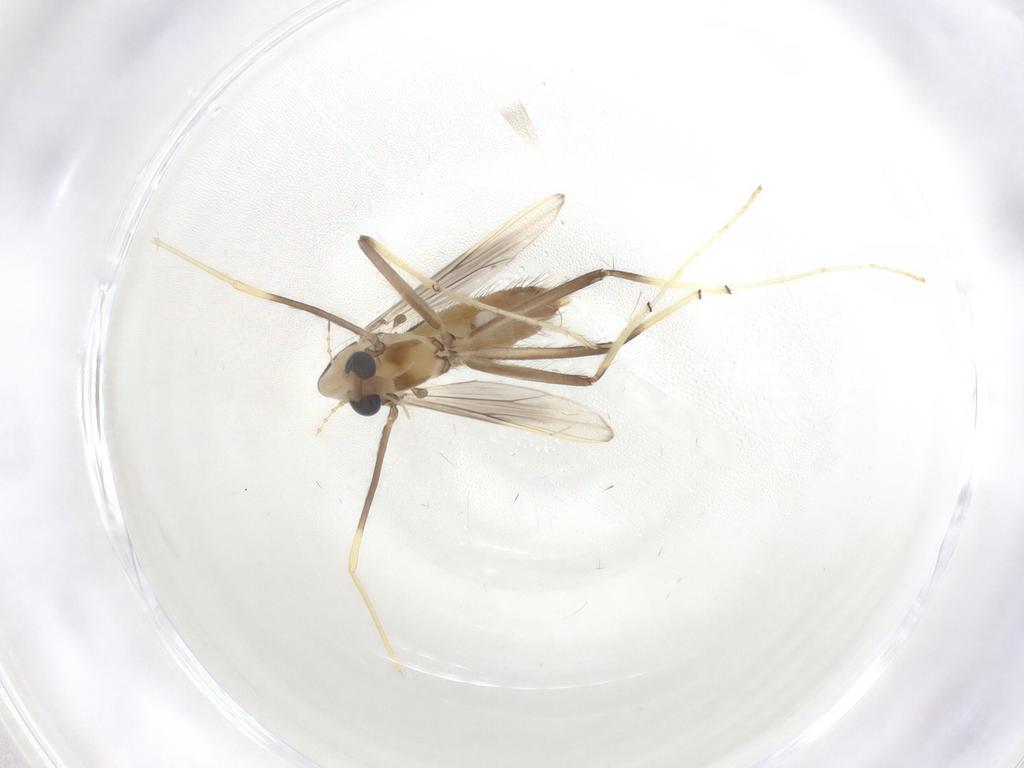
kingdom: Animalia
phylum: Arthropoda
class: Insecta
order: Diptera
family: Chironomidae
